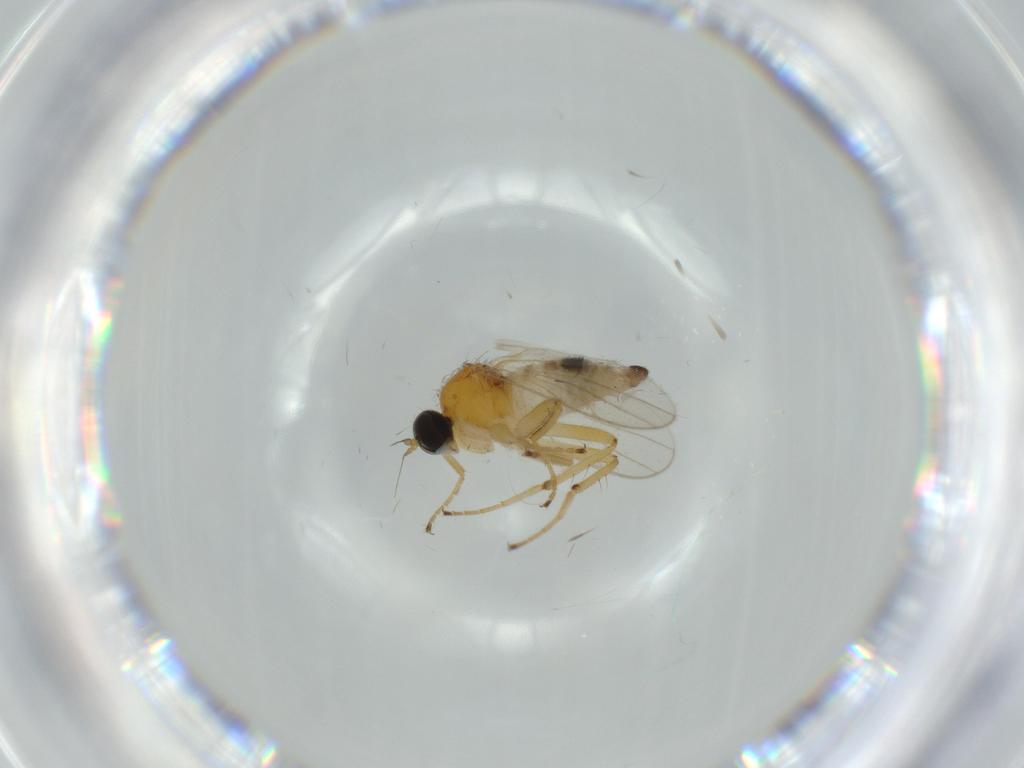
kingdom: Animalia
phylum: Arthropoda
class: Insecta
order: Diptera
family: Hybotidae
